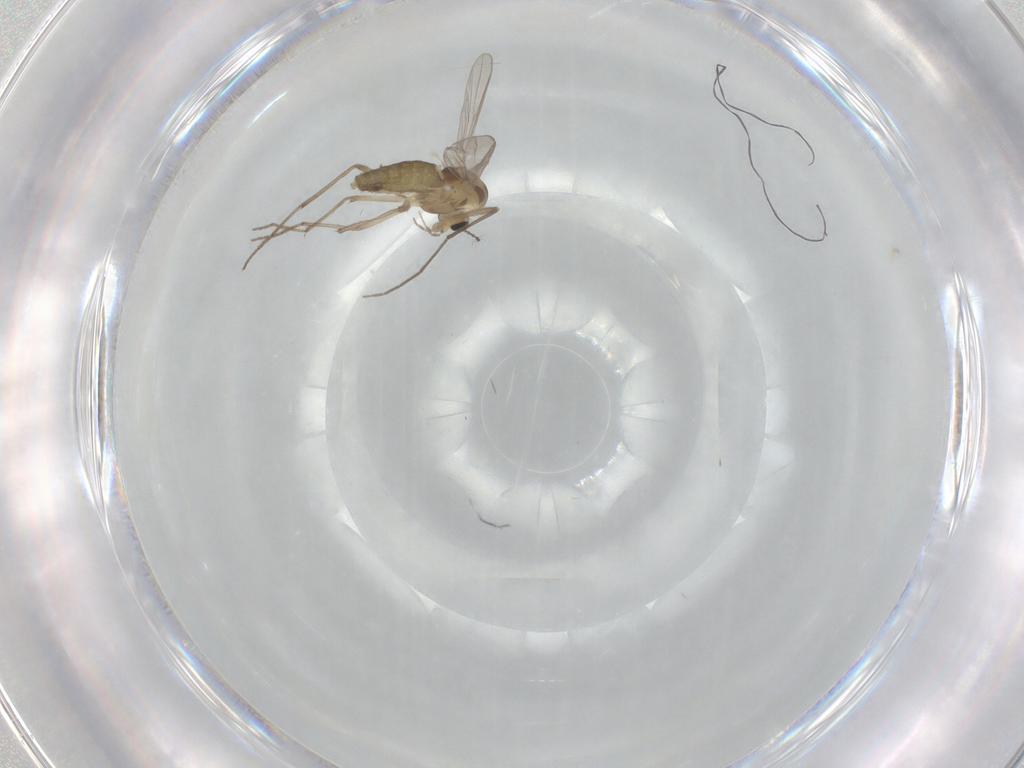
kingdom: Animalia
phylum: Arthropoda
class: Insecta
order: Diptera
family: Chironomidae
